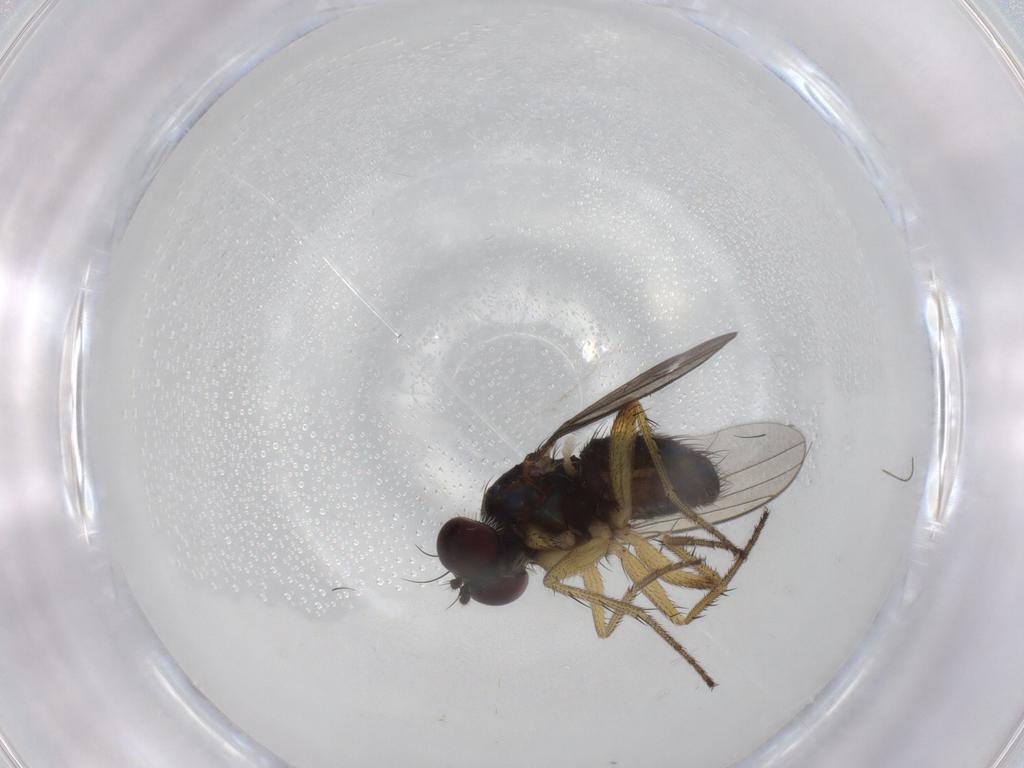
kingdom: Animalia
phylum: Arthropoda
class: Insecta
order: Diptera
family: Dolichopodidae
